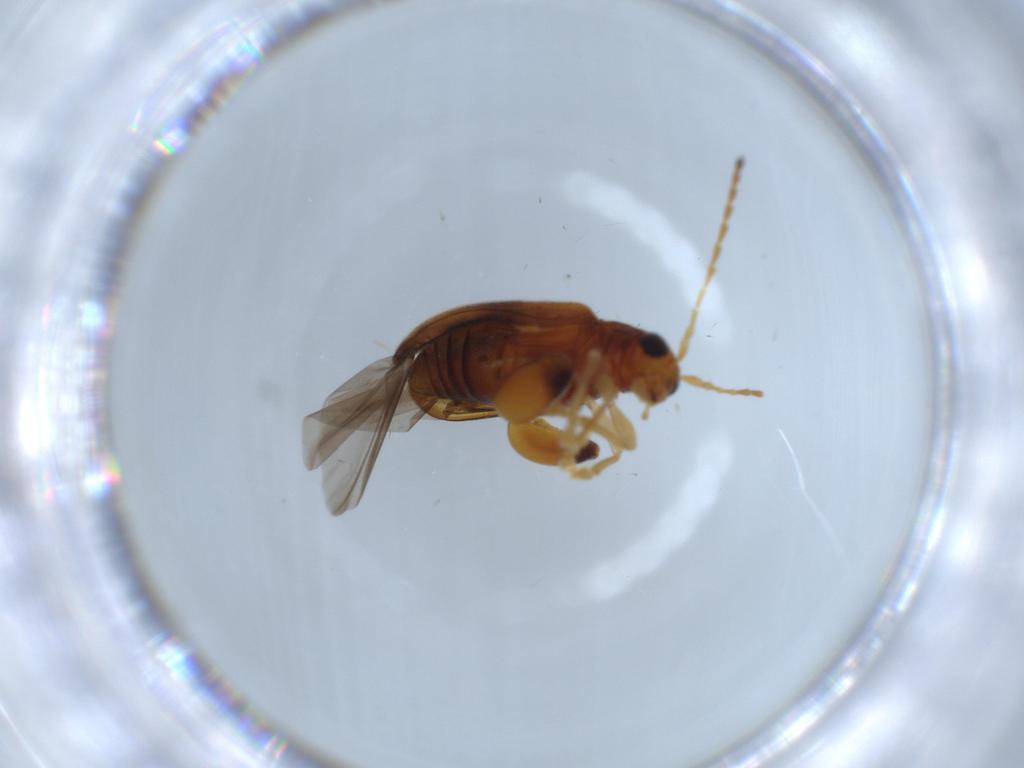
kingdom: Animalia
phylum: Arthropoda
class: Insecta
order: Coleoptera
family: Chrysomelidae
